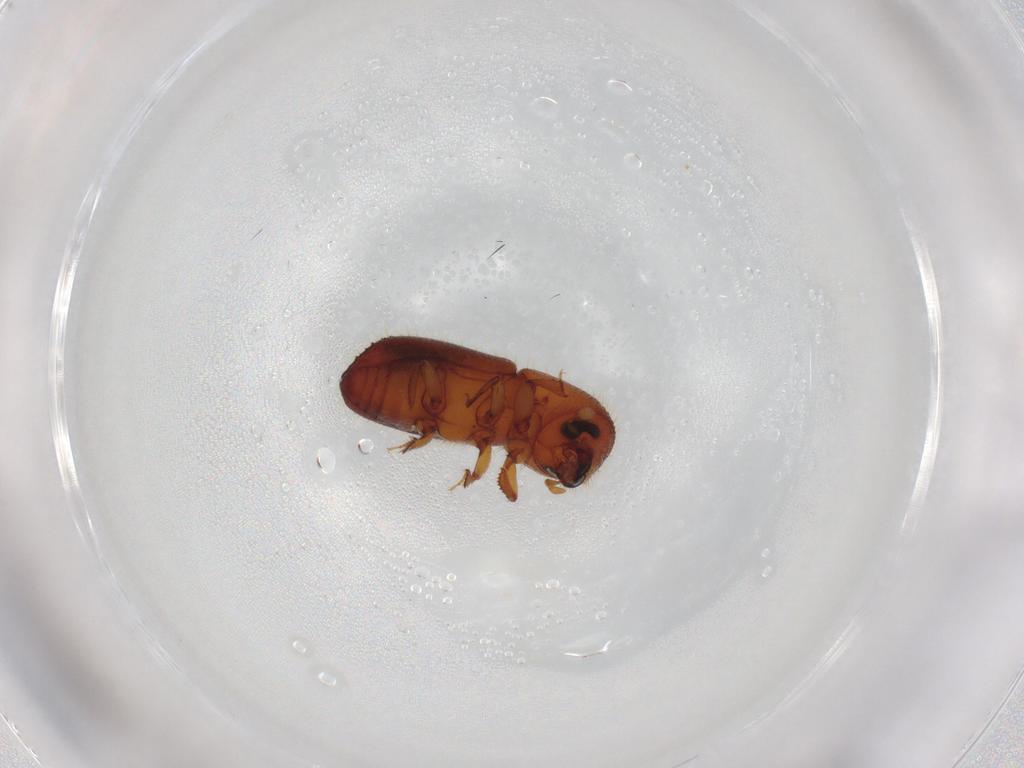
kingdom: Animalia
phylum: Arthropoda
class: Insecta
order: Coleoptera
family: Curculionidae
